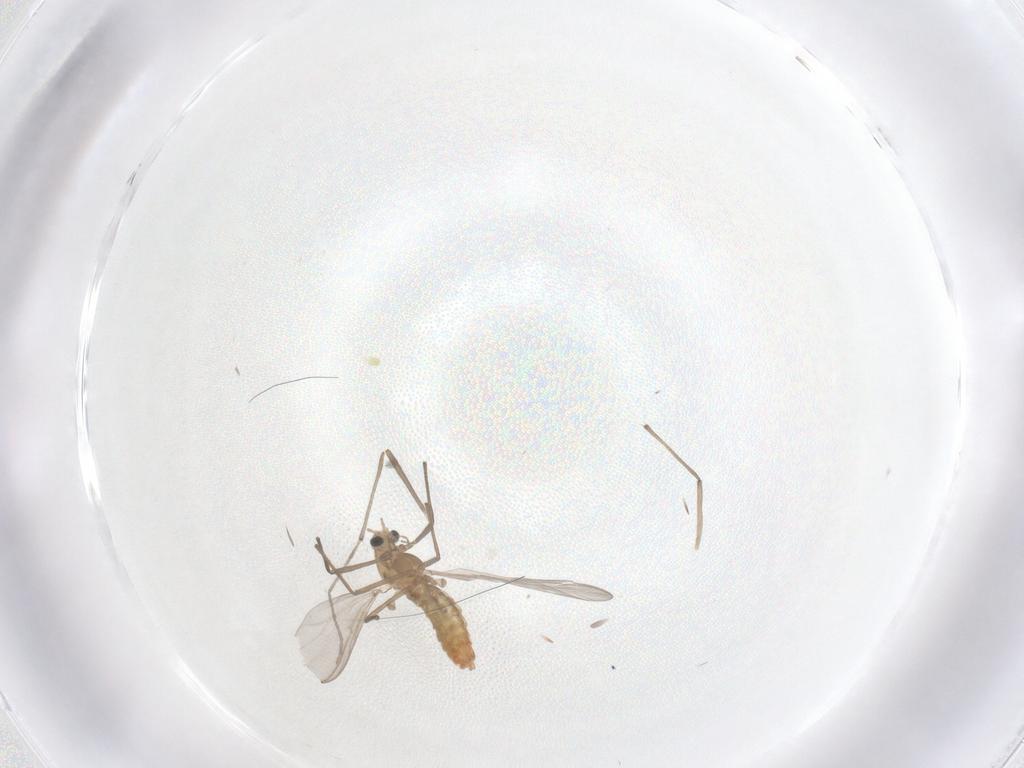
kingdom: Animalia
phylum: Arthropoda
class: Insecta
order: Diptera
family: Chironomidae
